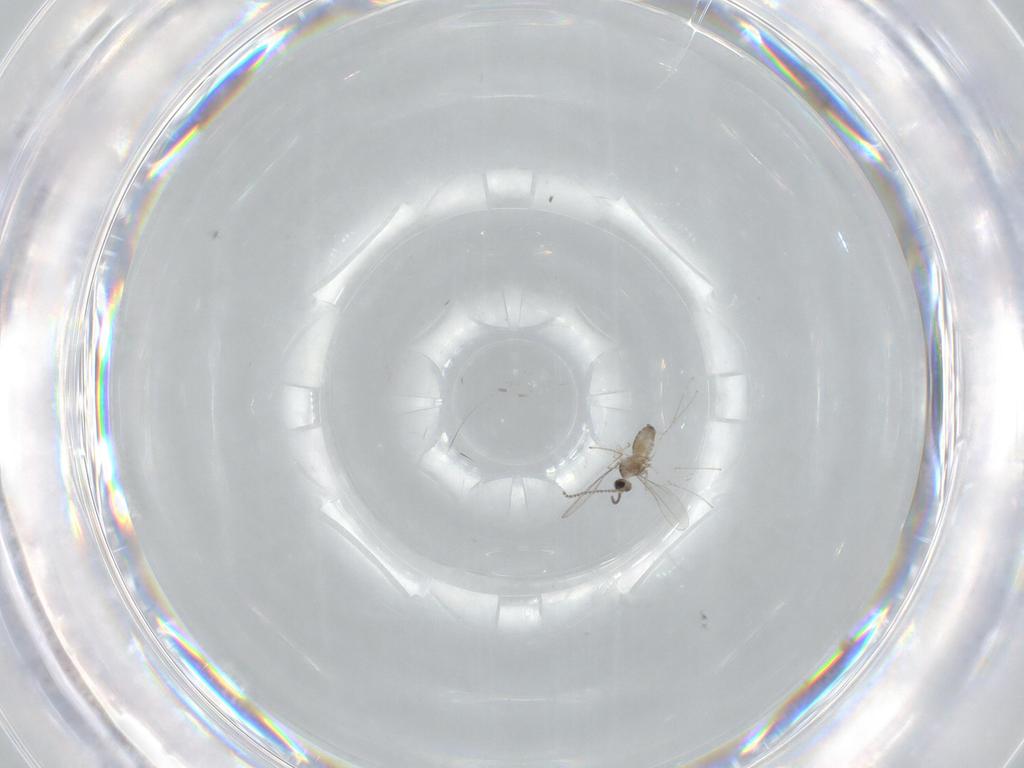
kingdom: Animalia
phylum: Arthropoda
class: Insecta
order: Diptera
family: Cecidomyiidae
